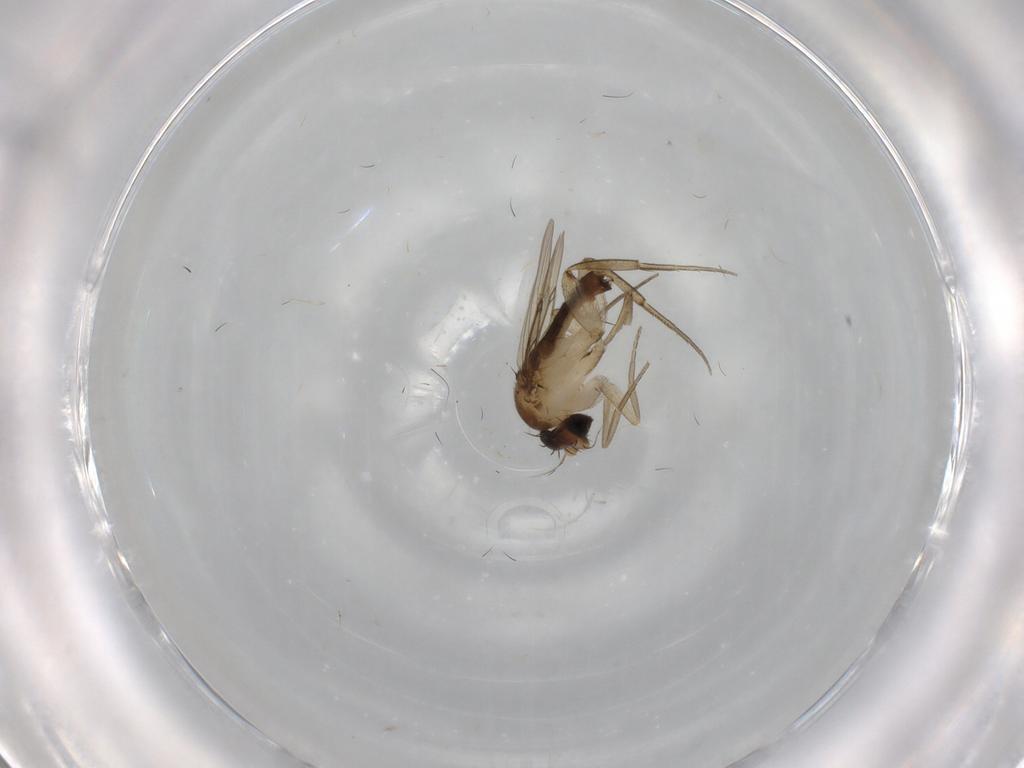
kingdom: Animalia
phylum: Arthropoda
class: Insecta
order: Diptera
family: Phoridae
